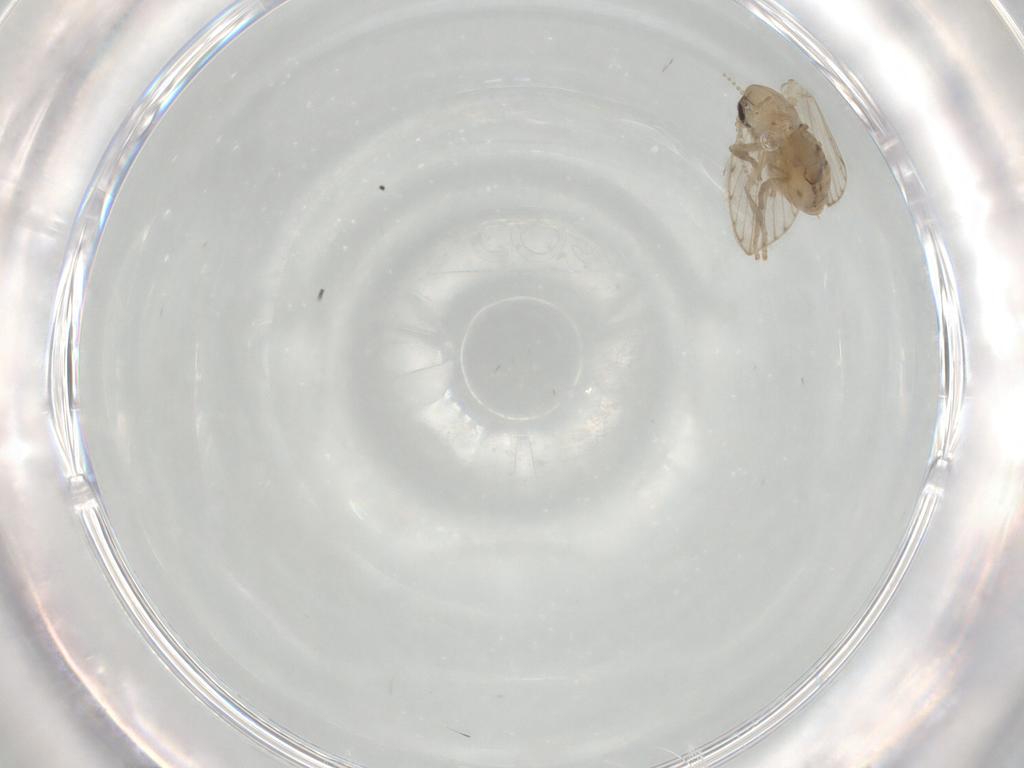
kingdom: Animalia
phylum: Arthropoda
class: Insecta
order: Diptera
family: Psychodidae
